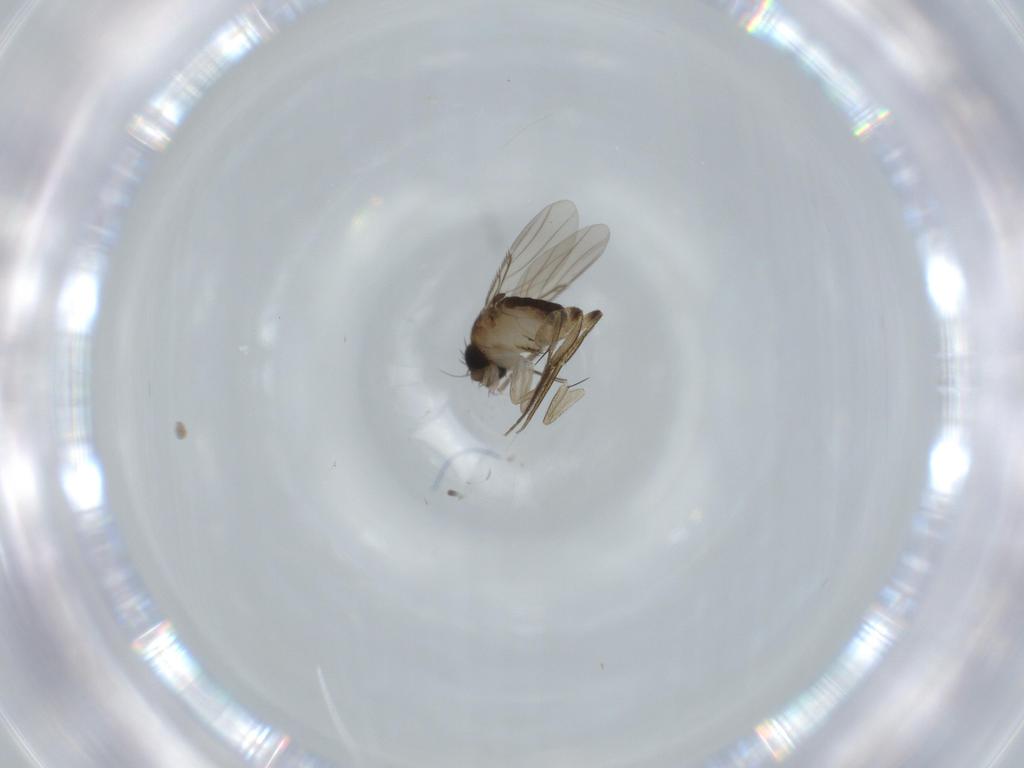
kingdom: Animalia
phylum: Arthropoda
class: Insecta
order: Diptera
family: Phoridae
